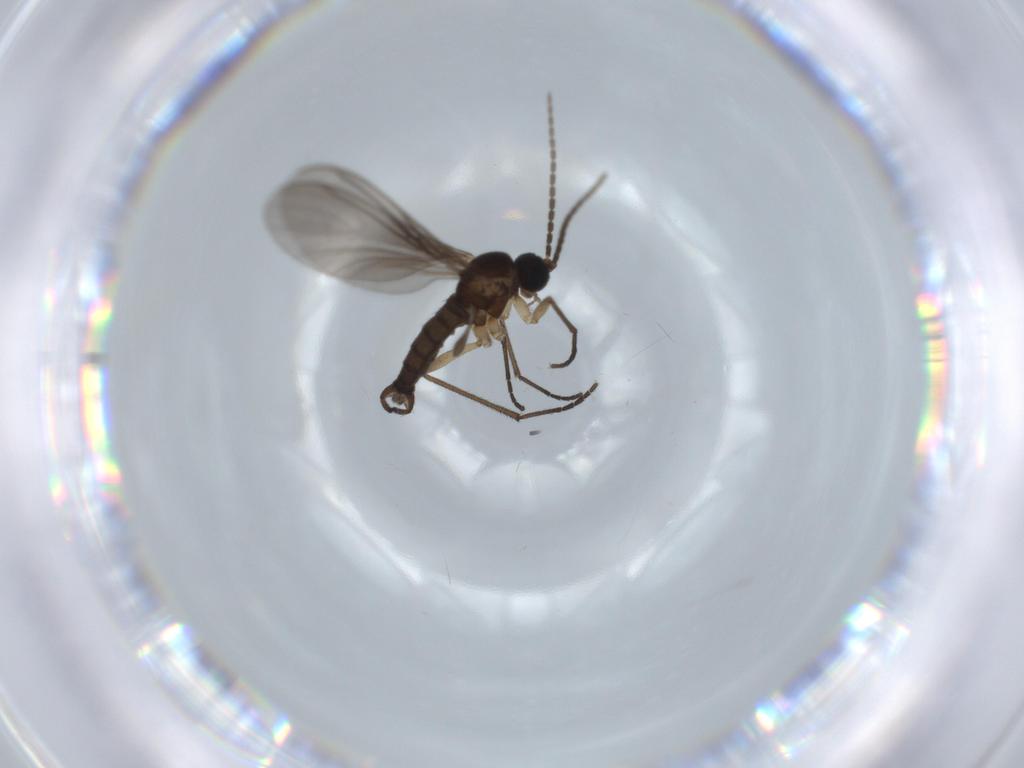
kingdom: Animalia
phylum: Arthropoda
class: Insecta
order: Diptera
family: Sciaridae
